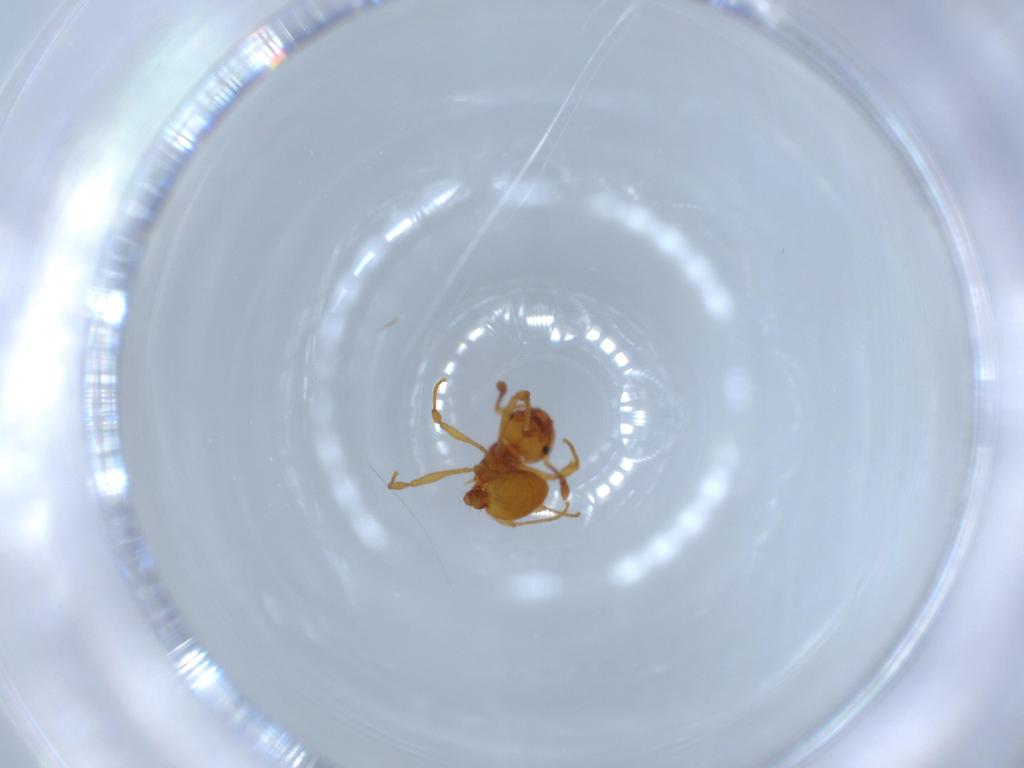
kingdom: Animalia
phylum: Arthropoda
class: Insecta
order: Hymenoptera
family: Formicidae
